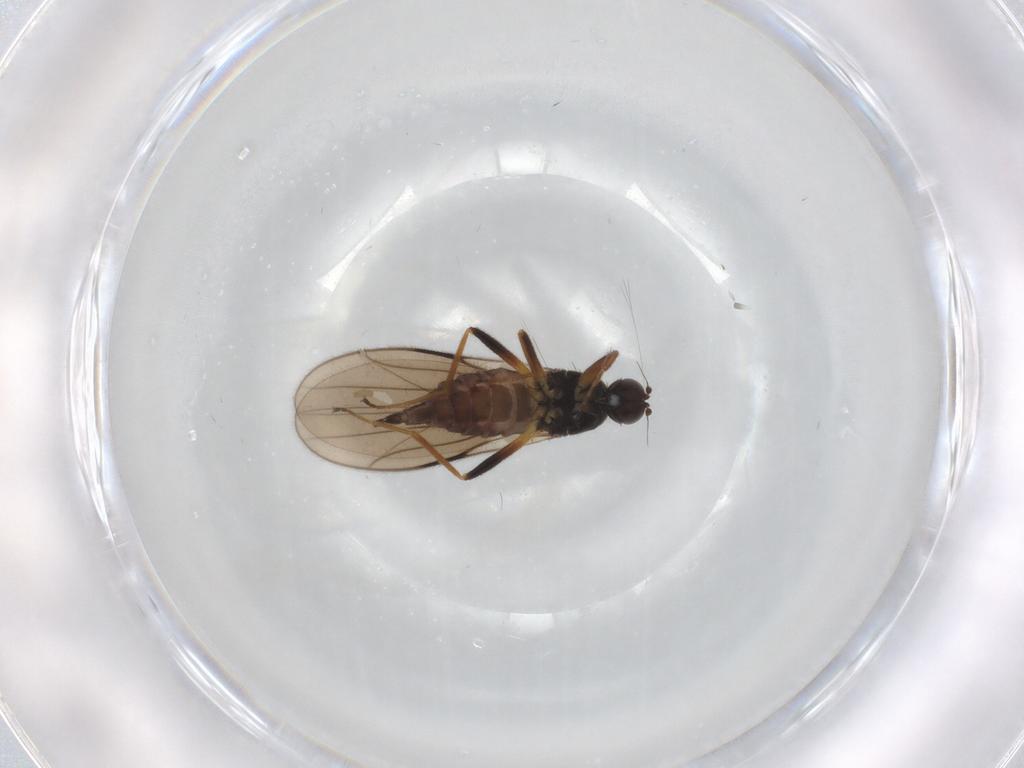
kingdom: Animalia
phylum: Arthropoda
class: Insecta
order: Diptera
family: Hybotidae
